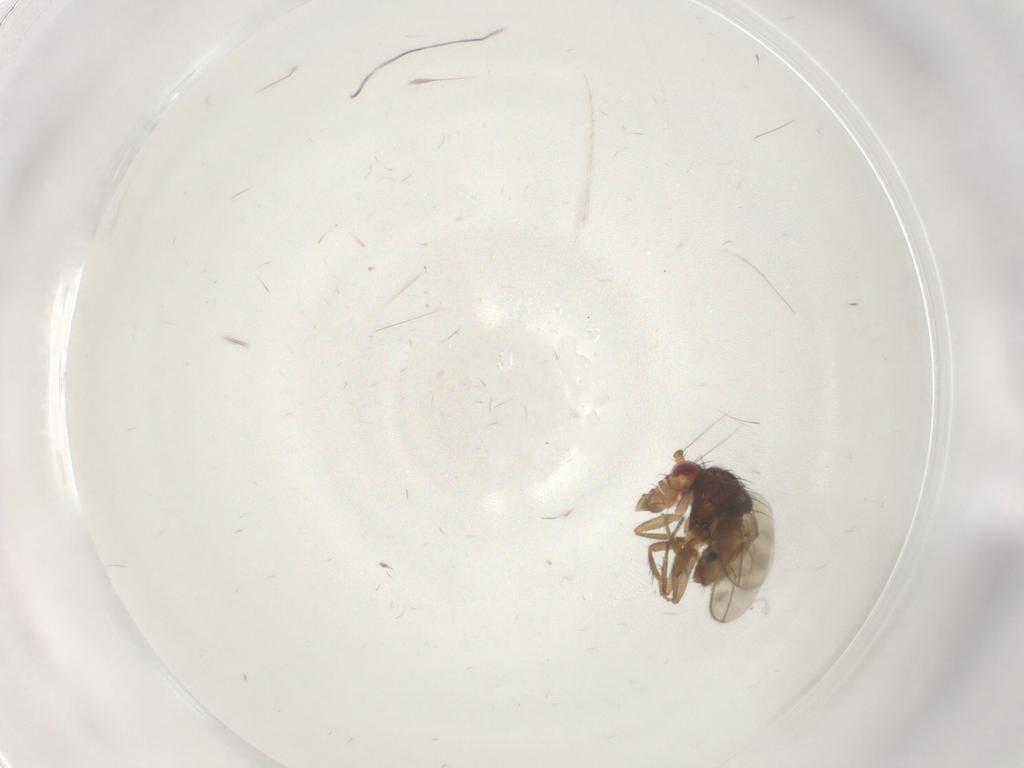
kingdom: Animalia
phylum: Arthropoda
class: Insecta
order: Diptera
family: Sphaeroceridae
